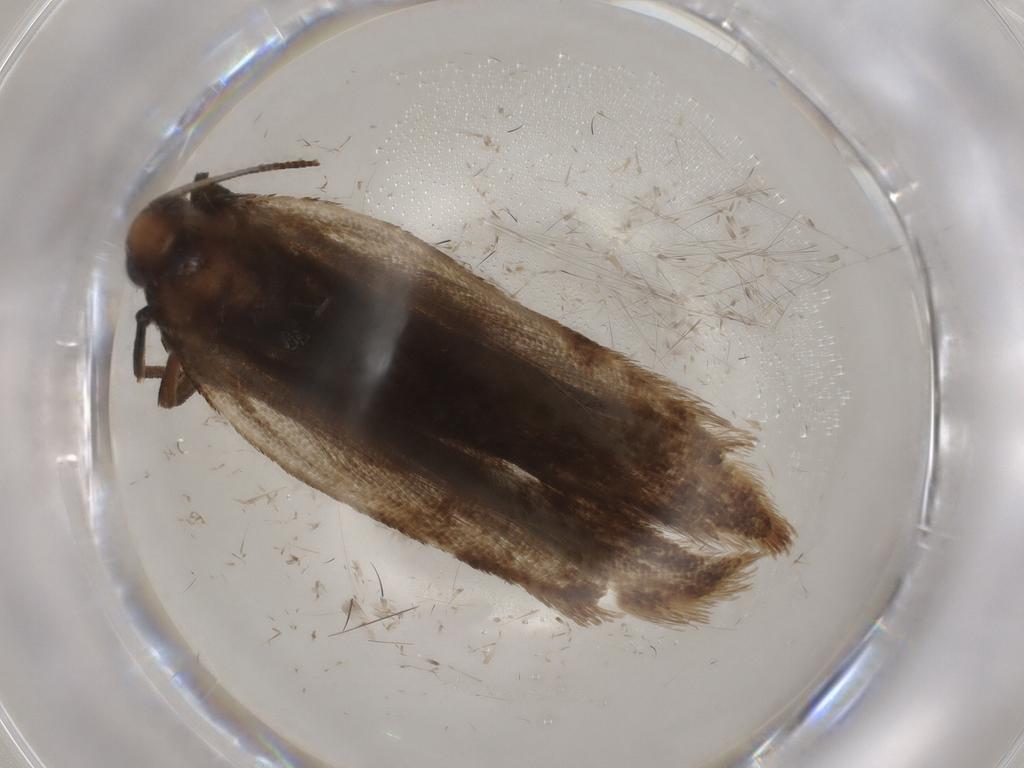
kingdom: Animalia
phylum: Arthropoda
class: Insecta
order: Lepidoptera
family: Gelechiidae
